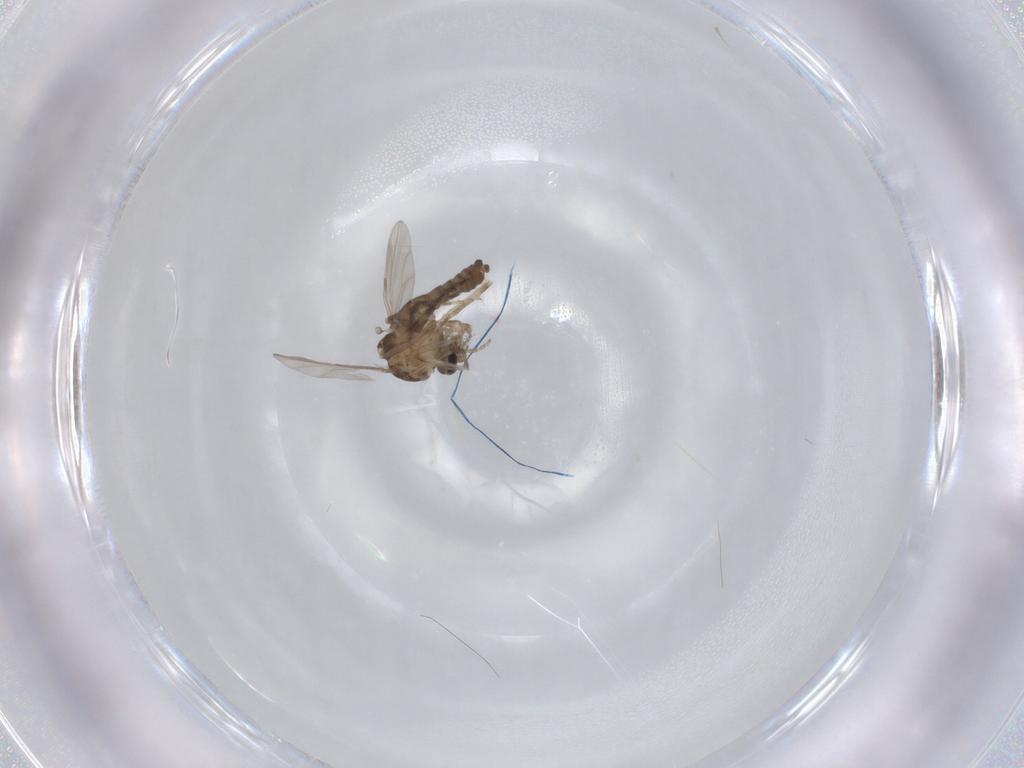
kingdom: Animalia
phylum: Arthropoda
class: Insecta
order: Diptera
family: Ceratopogonidae
